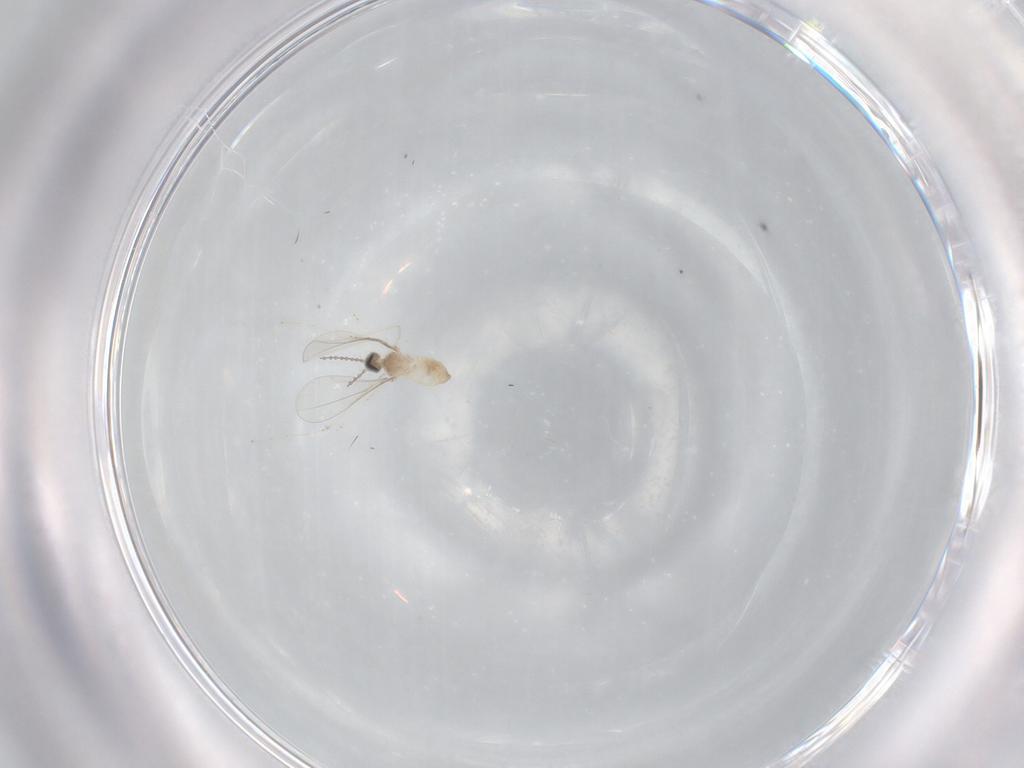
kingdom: Animalia
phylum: Arthropoda
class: Insecta
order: Diptera
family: Cecidomyiidae
